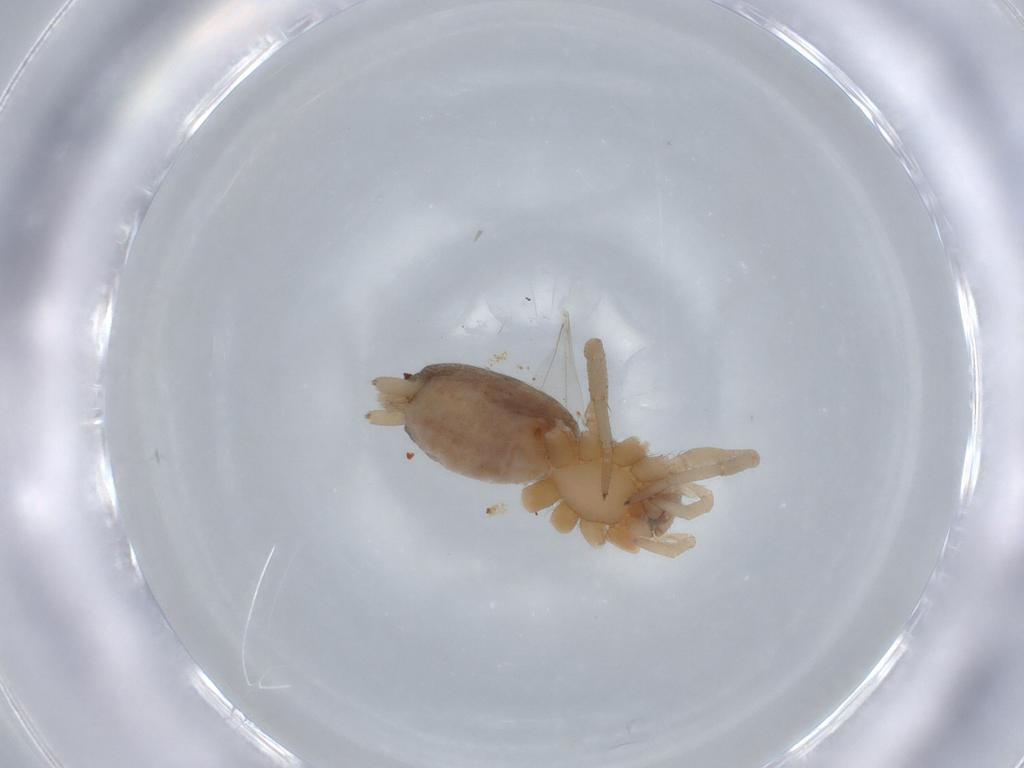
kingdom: Animalia
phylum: Arthropoda
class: Arachnida
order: Araneae
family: Gnaphosidae
